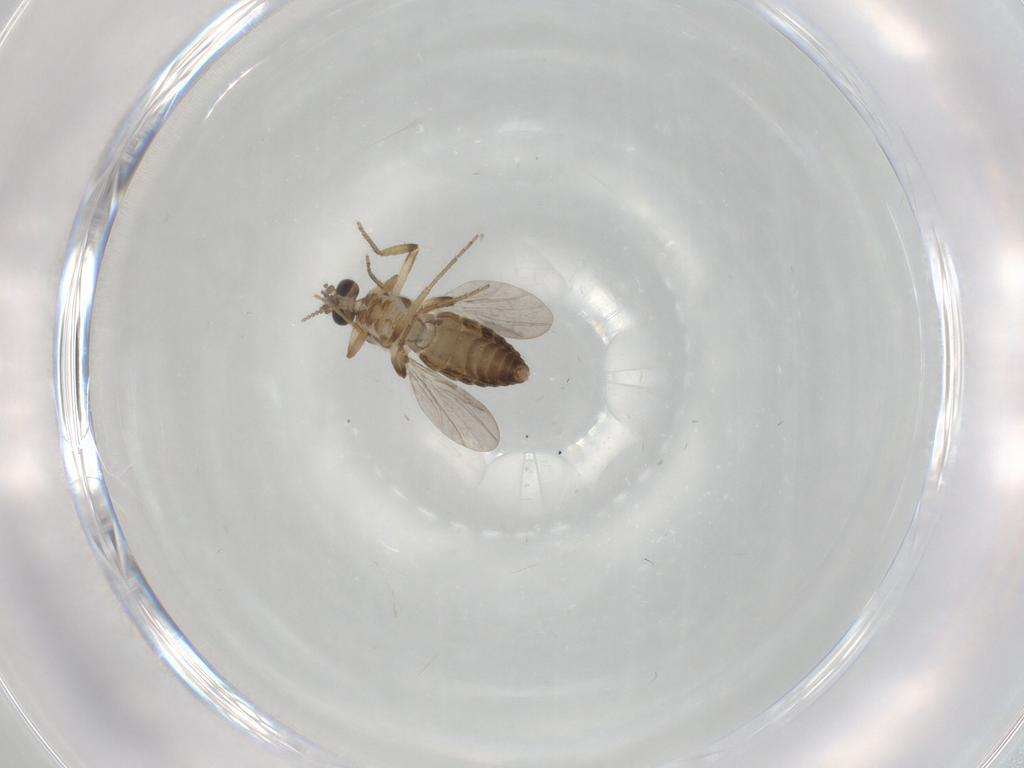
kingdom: Animalia
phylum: Arthropoda
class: Insecta
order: Diptera
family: Ceratopogonidae
